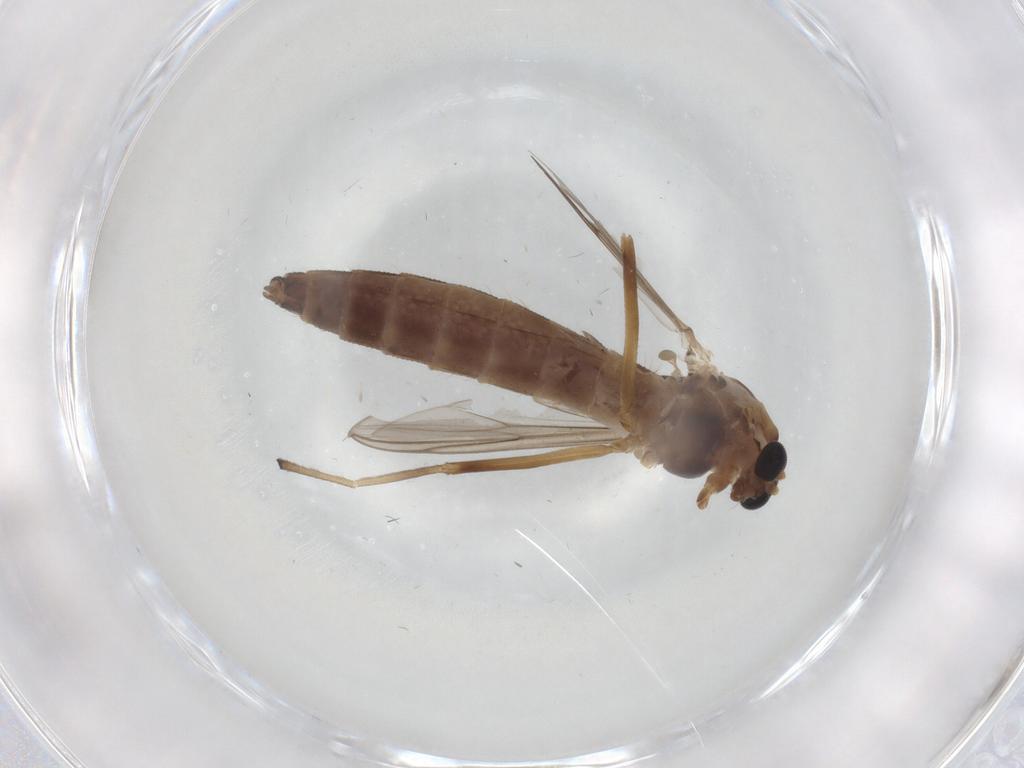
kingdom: Animalia
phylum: Arthropoda
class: Insecta
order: Diptera
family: Chironomidae
